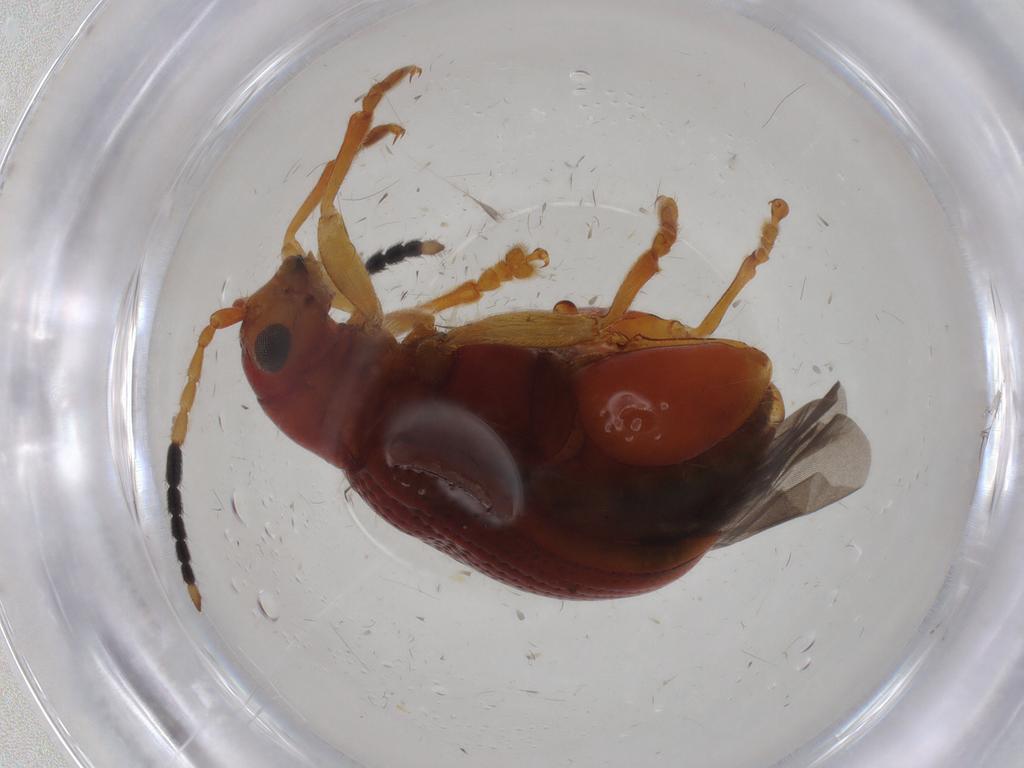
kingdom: Animalia
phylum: Arthropoda
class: Insecta
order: Coleoptera
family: Chrysomelidae
